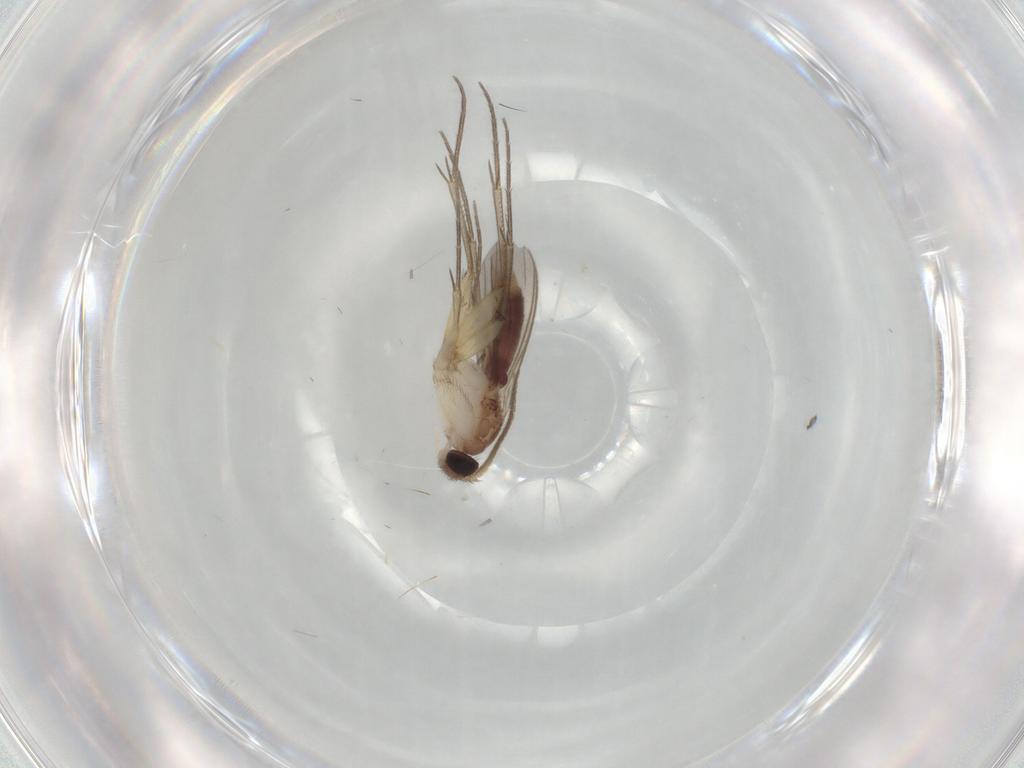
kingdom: Animalia
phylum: Arthropoda
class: Insecta
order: Diptera
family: Mycetophilidae
